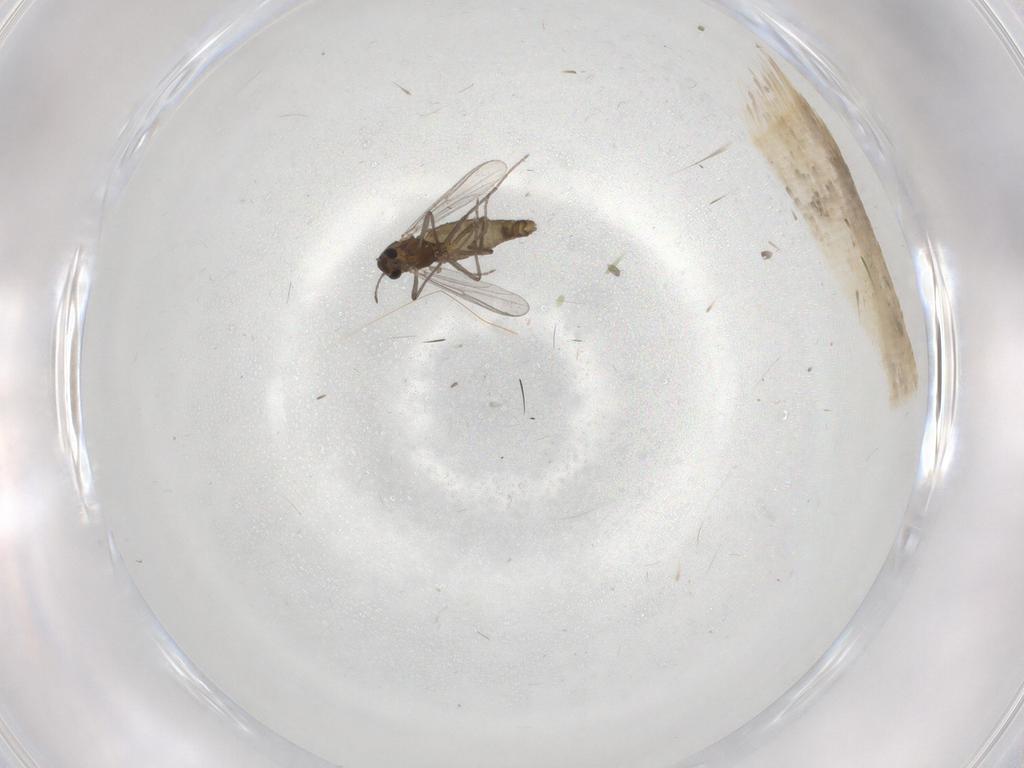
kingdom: Animalia
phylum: Arthropoda
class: Insecta
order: Diptera
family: Chironomidae
